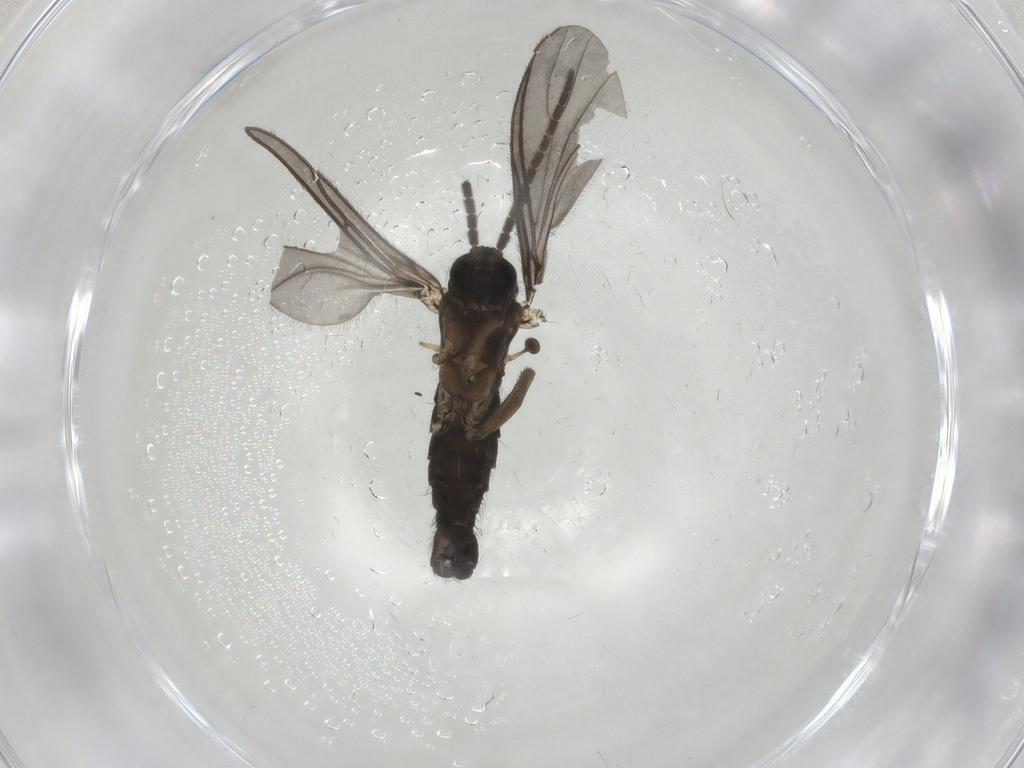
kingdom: Animalia
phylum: Arthropoda
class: Insecta
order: Diptera
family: Sciaridae
